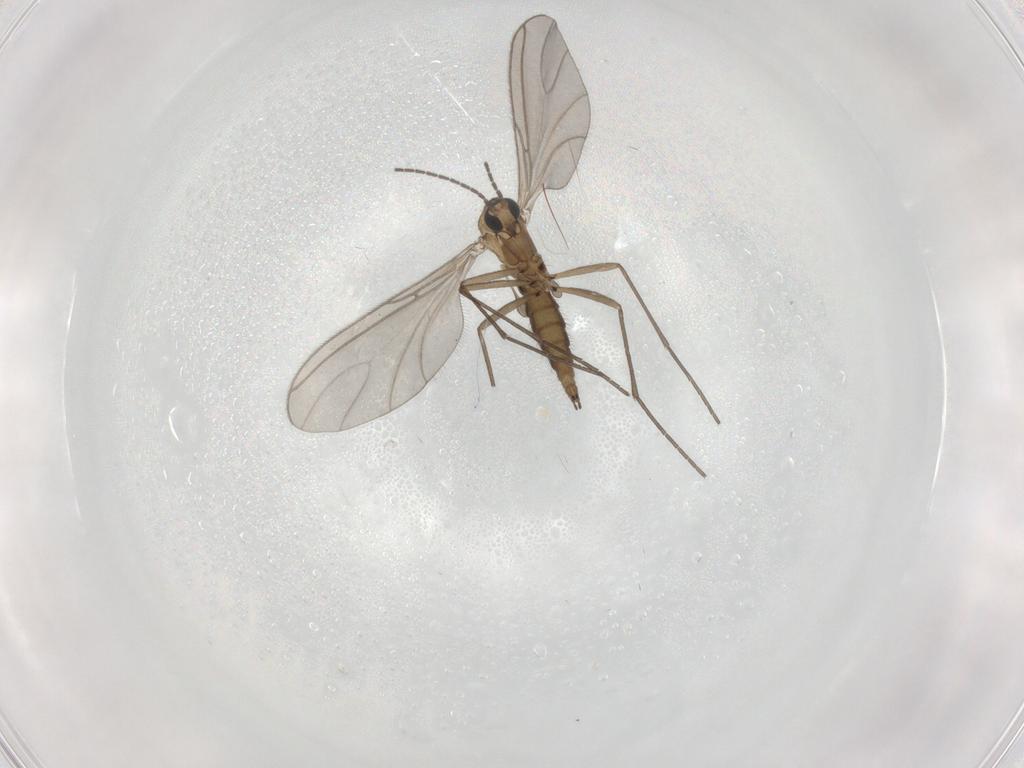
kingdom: Animalia
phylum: Arthropoda
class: Insecta
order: Diptera
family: Sciaridae
